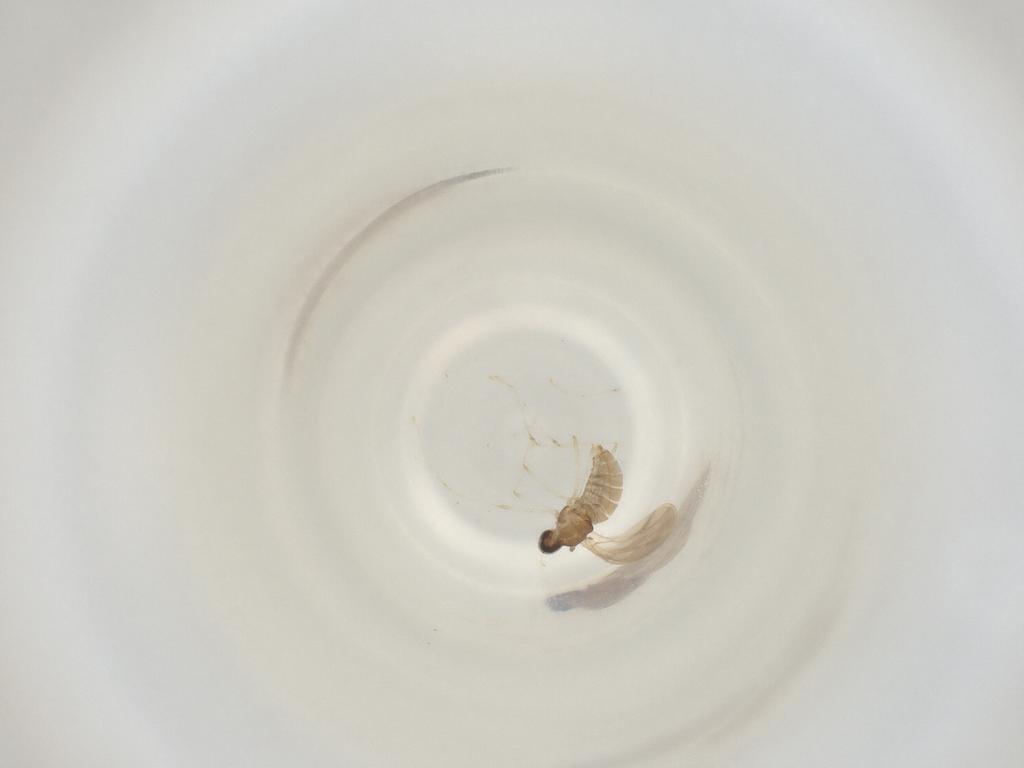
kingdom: Animalia
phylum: Arthropoda
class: Insecta
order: Diptera
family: Cecidomyiidae
